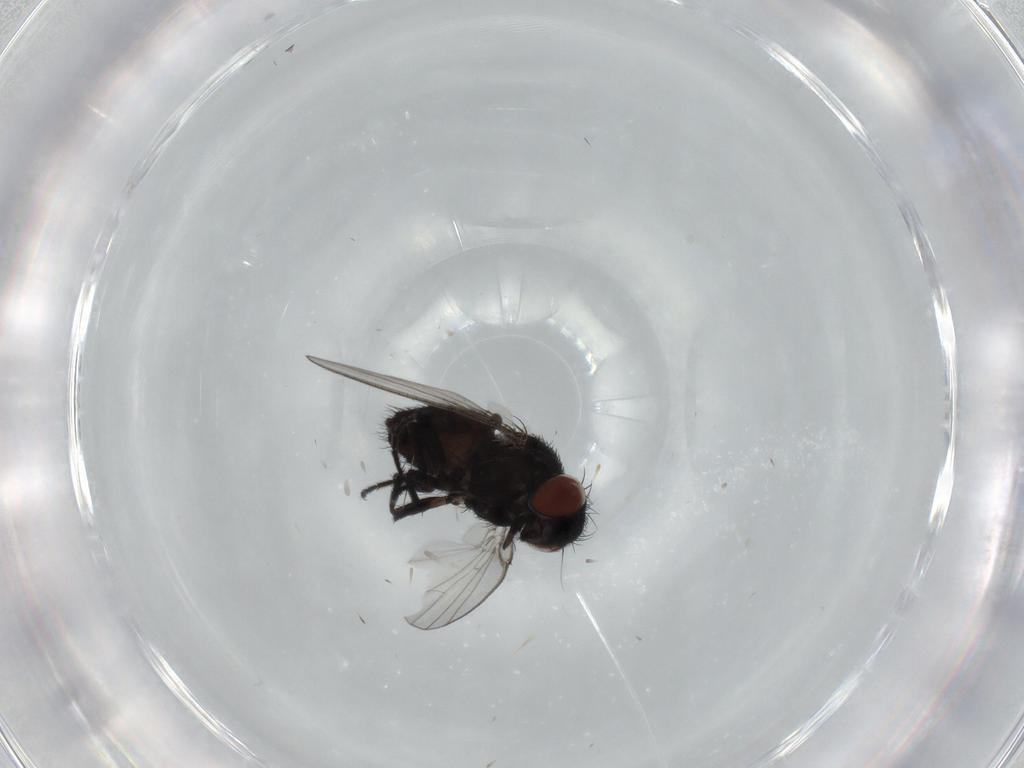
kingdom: Animalia
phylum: Arthropoda
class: Insecta
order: Diptera
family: Milichiidae
